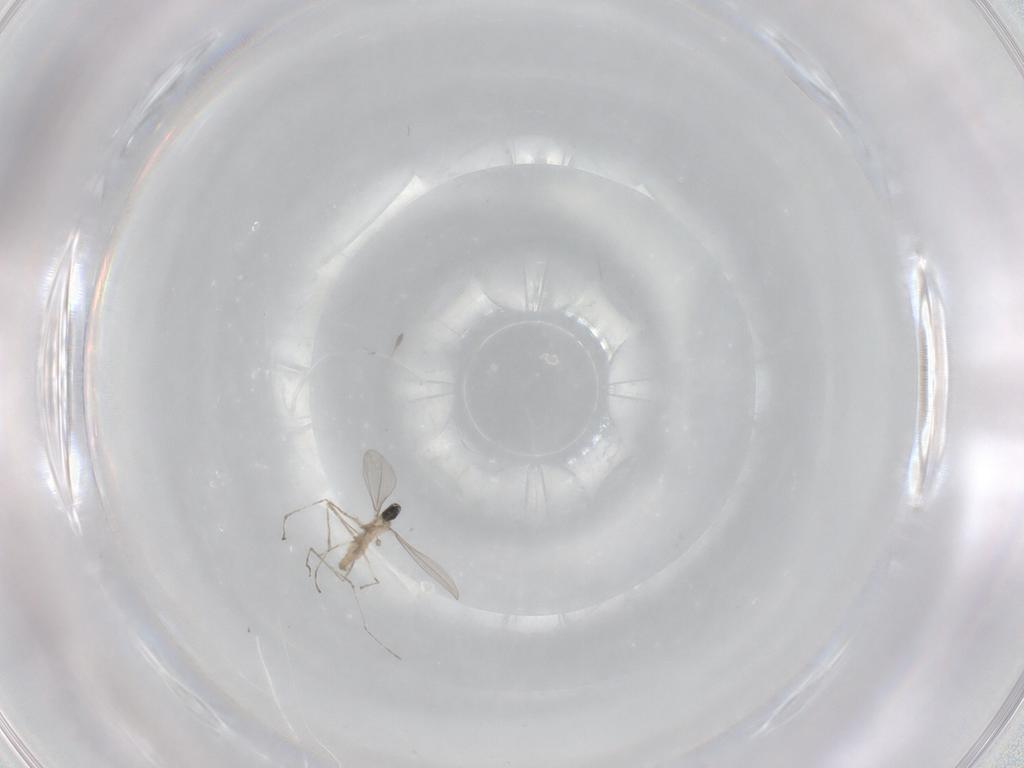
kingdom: Animalia
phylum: Arthropoda
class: Insecta
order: Diptera
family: Cecidomyiidae
